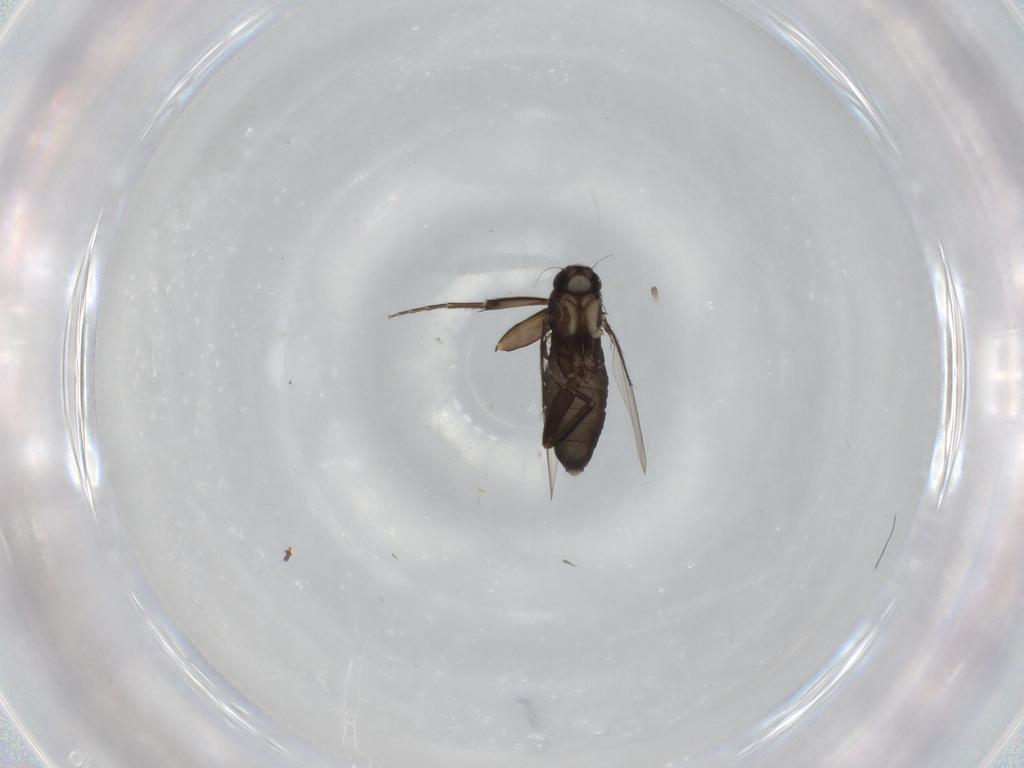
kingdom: Animalia
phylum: Arthropoda
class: Insecta
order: Diptera
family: Phoridae
